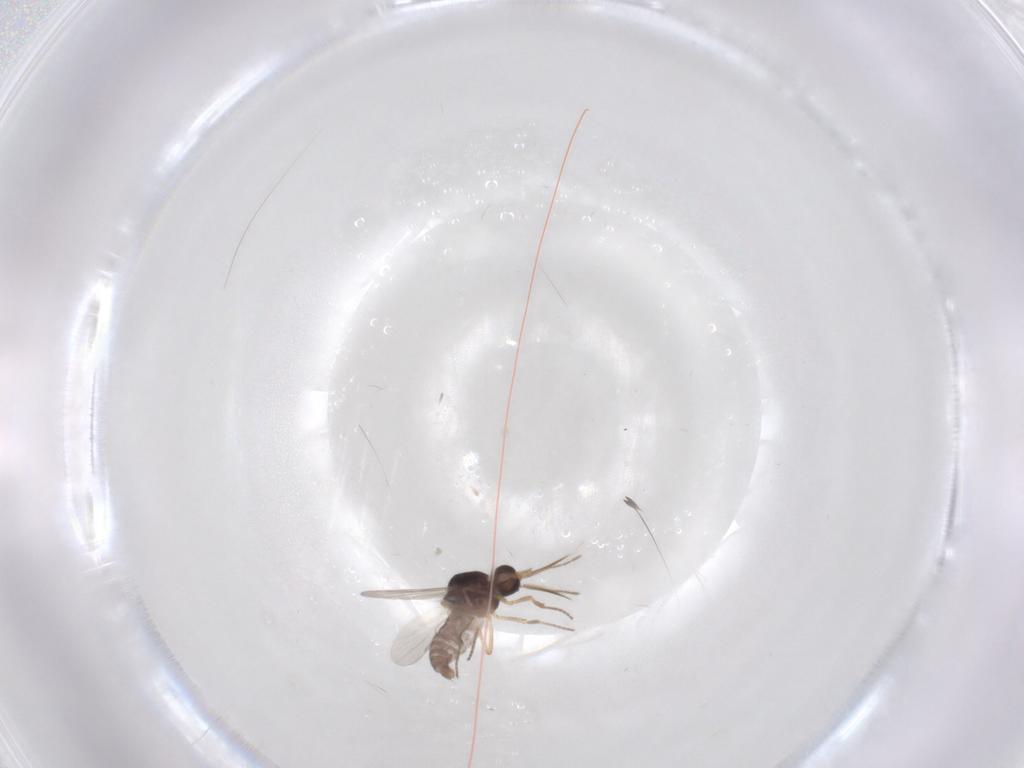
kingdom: Animalia
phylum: Arthropoda
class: Insecta
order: Diptera
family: Ceratopogonidae
